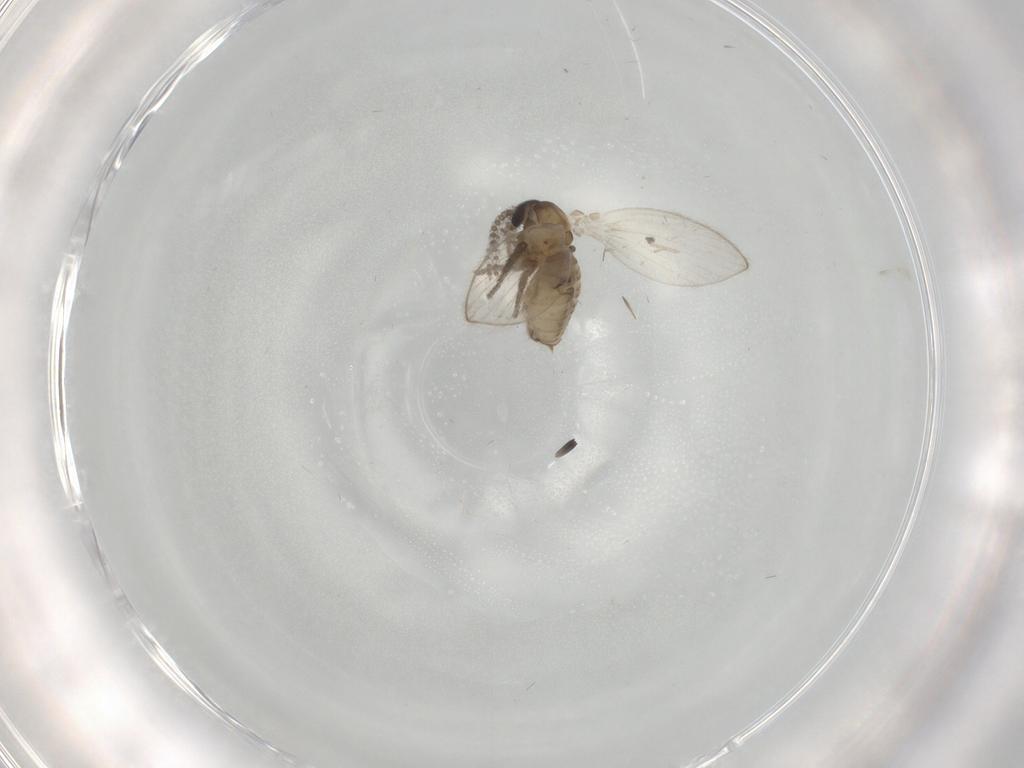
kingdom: Animalia
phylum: Arthropoda
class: Insecta
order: Diptera
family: Psychodidae
